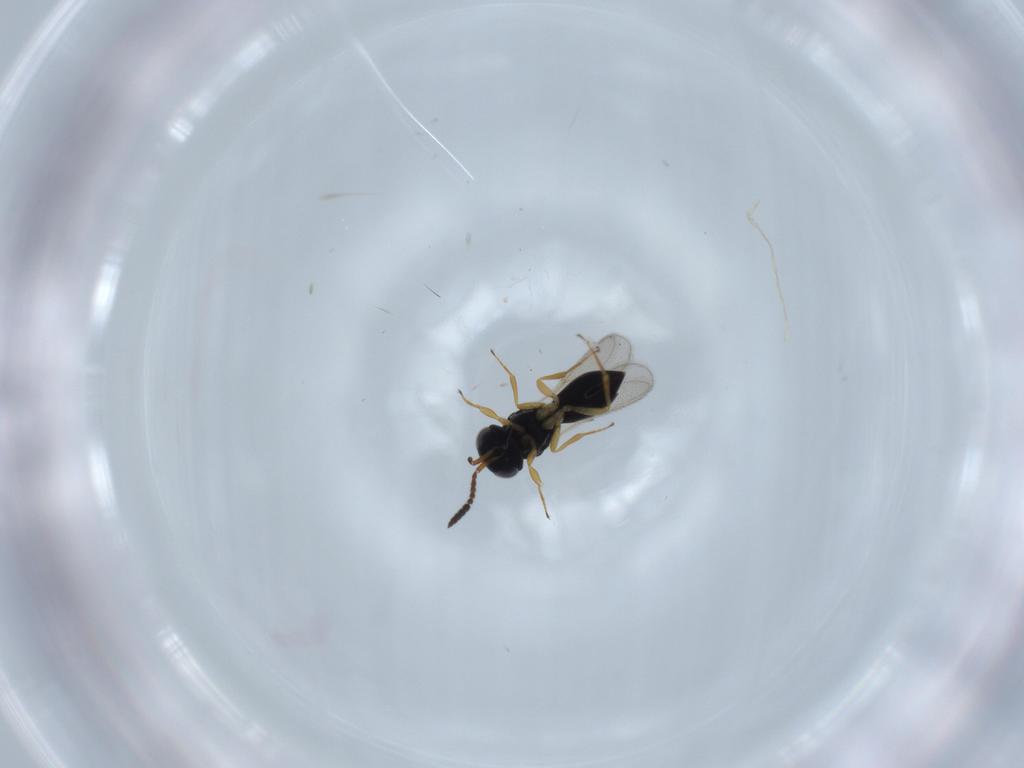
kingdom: Animalia
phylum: Arthropoda
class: Insecta
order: Hymenoptera
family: Scelionidae
